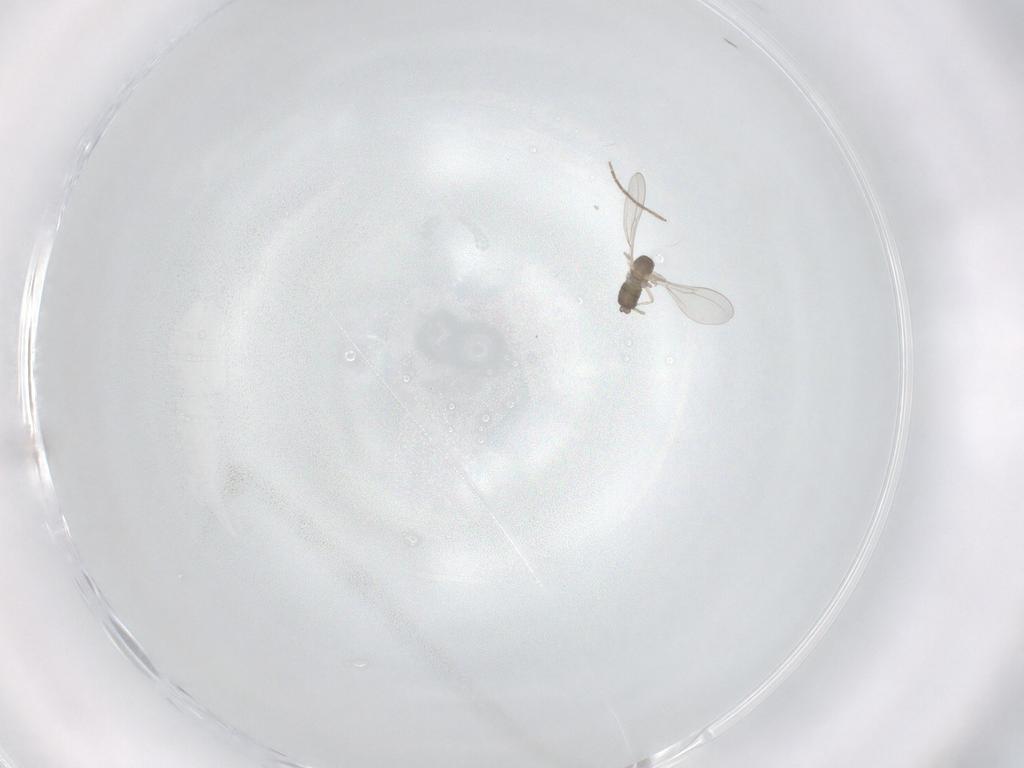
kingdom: Animalia
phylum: Arthropoda
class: Insecta
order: Diptera
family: Cecidomyiidae
